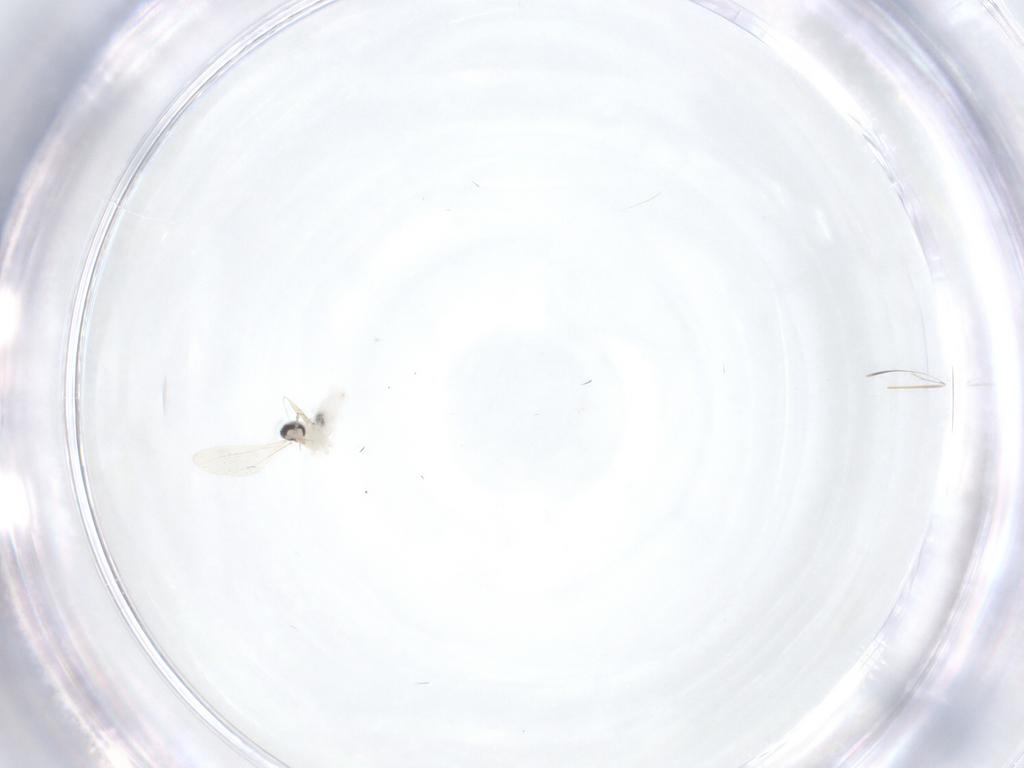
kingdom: Animalia
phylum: Arthropoda
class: Insecta
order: Diptera
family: Cecidomyiidae
